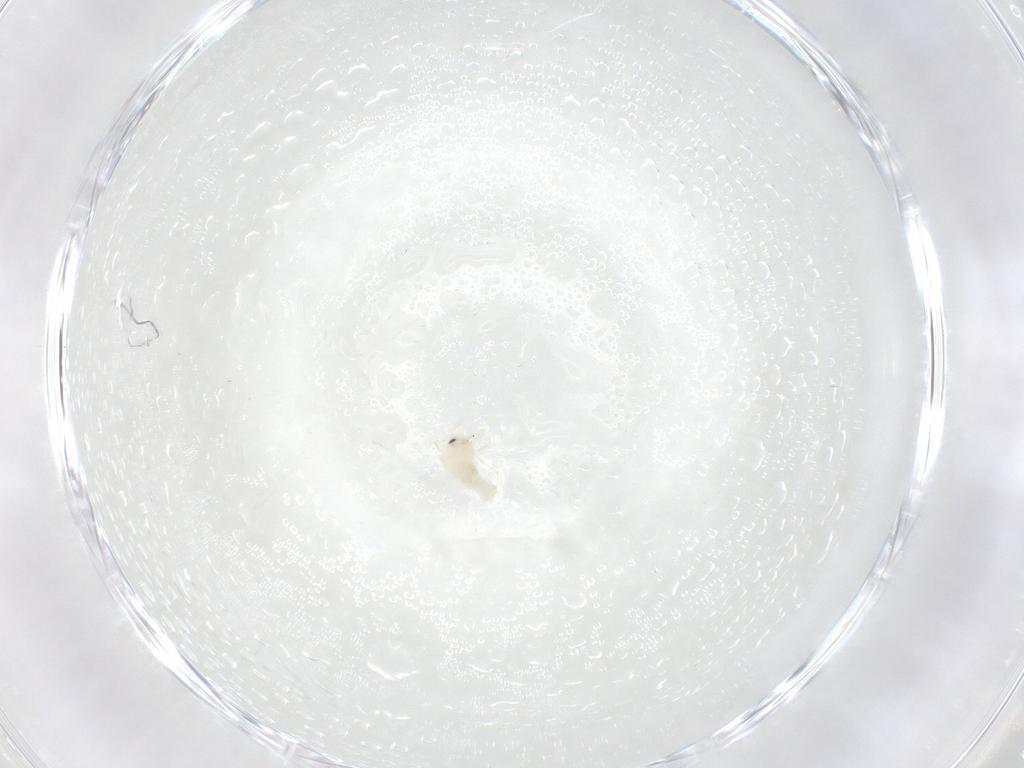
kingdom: Animalia
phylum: Arthropoda
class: Insecta
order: Hemiptera
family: Aleyrodidae
